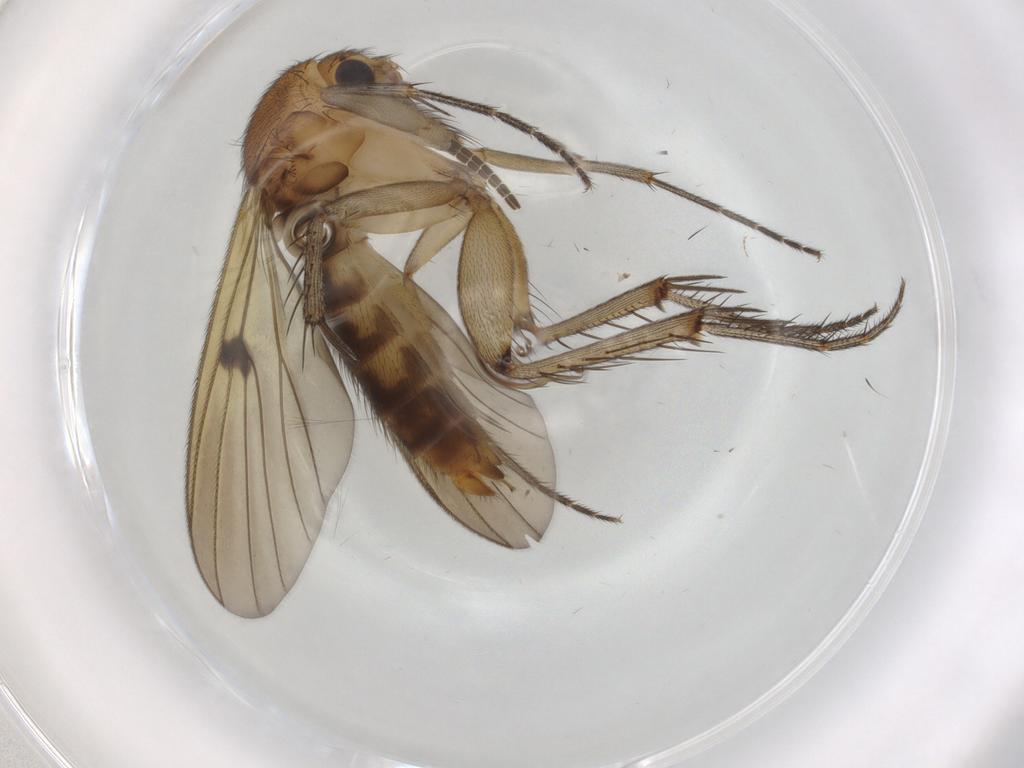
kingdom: Animalia
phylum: Arthropoda
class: Insecta
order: Diptera
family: Mycetophilidae
